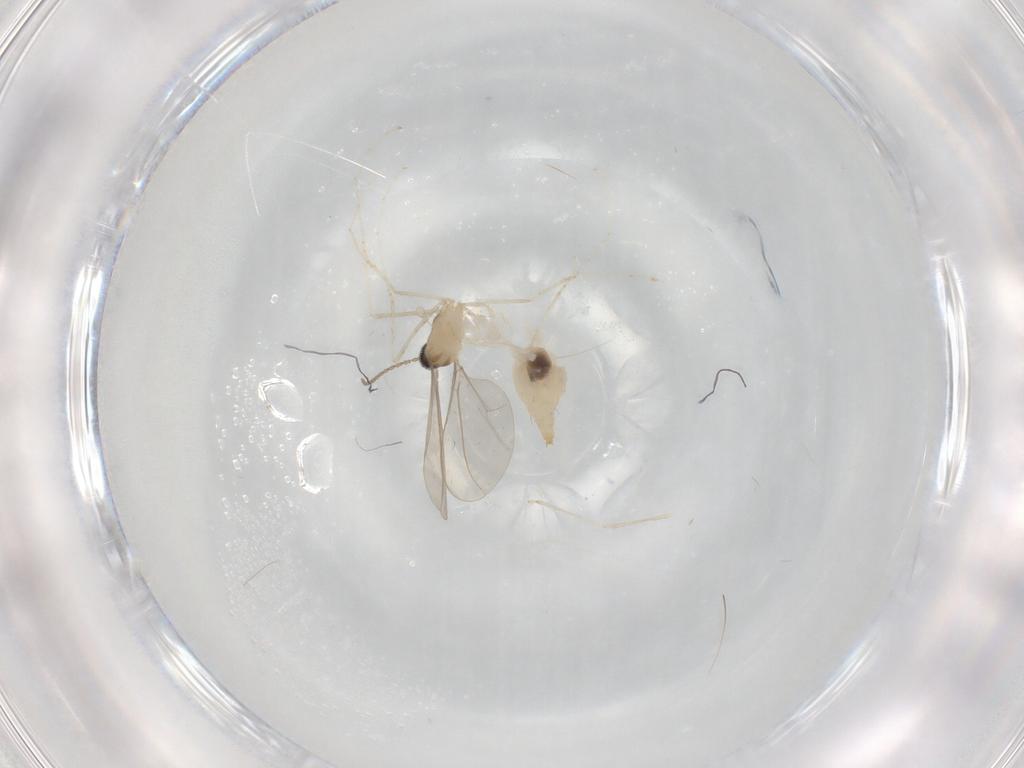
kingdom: Animalia
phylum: Arthropoda
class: Insecta
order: Diptera
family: Cecidomyiidae
